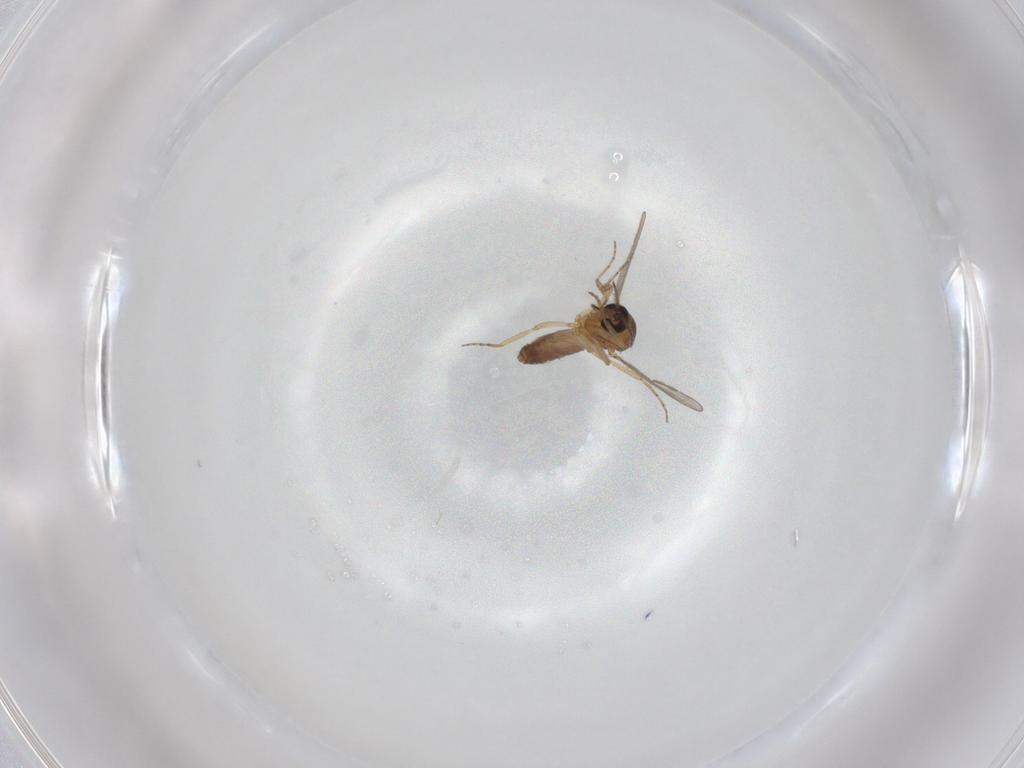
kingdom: Animalia
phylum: Arthropoda
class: Insecta
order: Diptera
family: Ceratopogonidae
